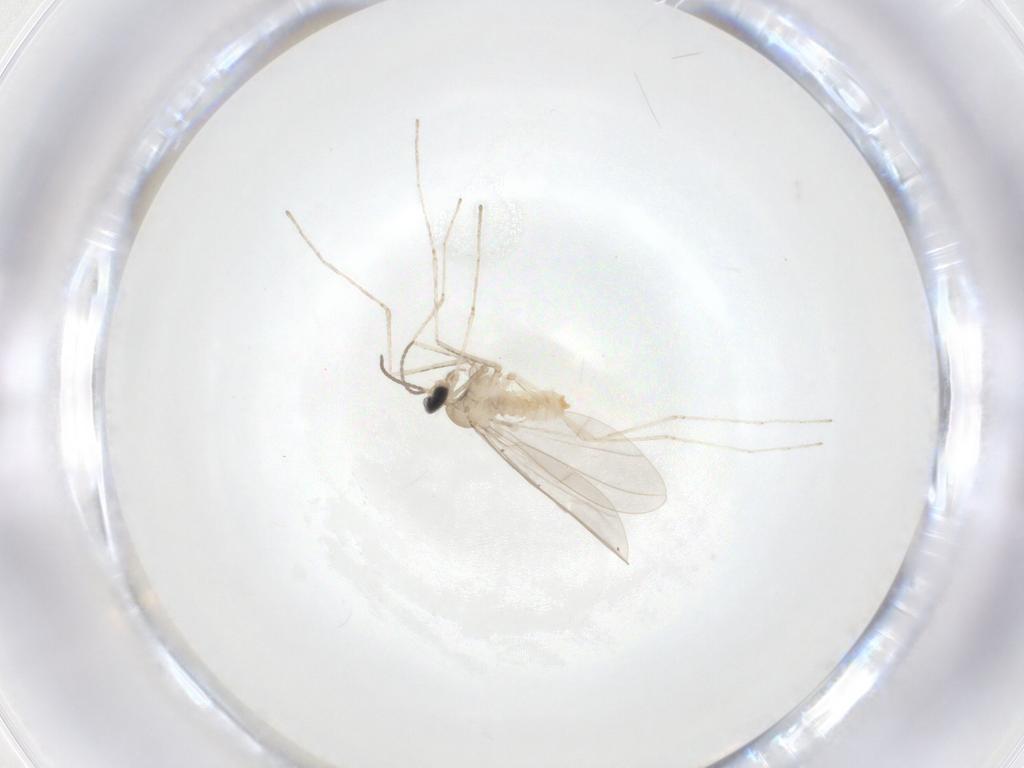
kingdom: Animalia
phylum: Arthropoda
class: Insecta
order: Diptera
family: Cecidomyiidae
